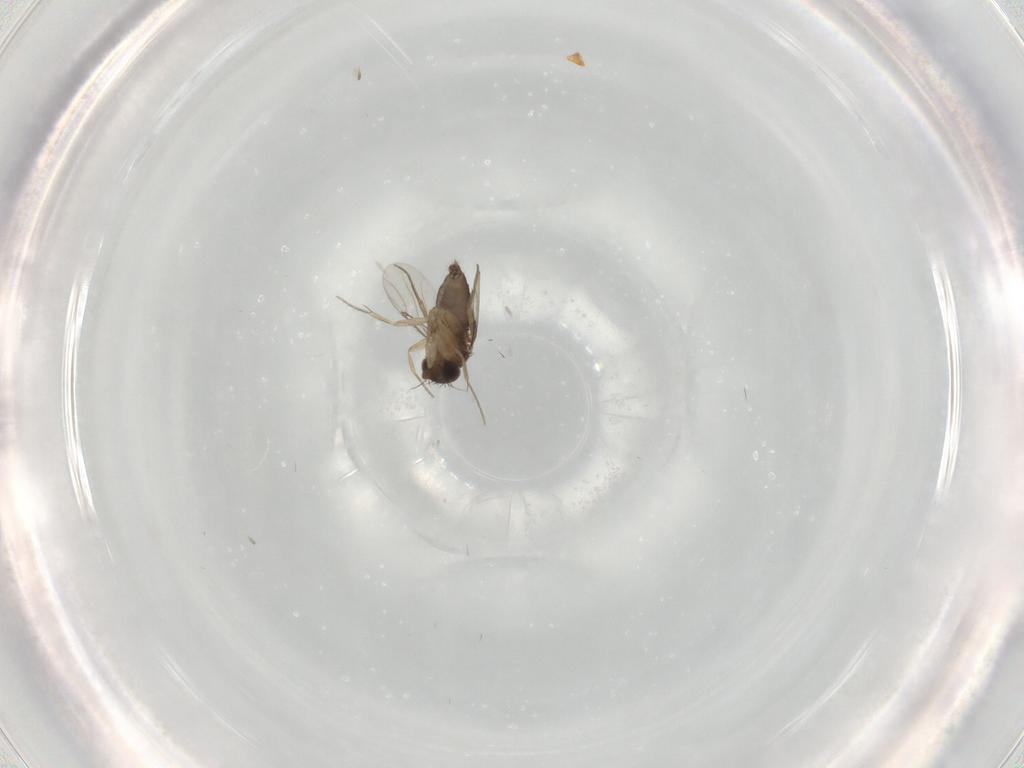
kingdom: Animalia
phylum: Arthropoda
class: Insecta
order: Diptera
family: Phoridae
